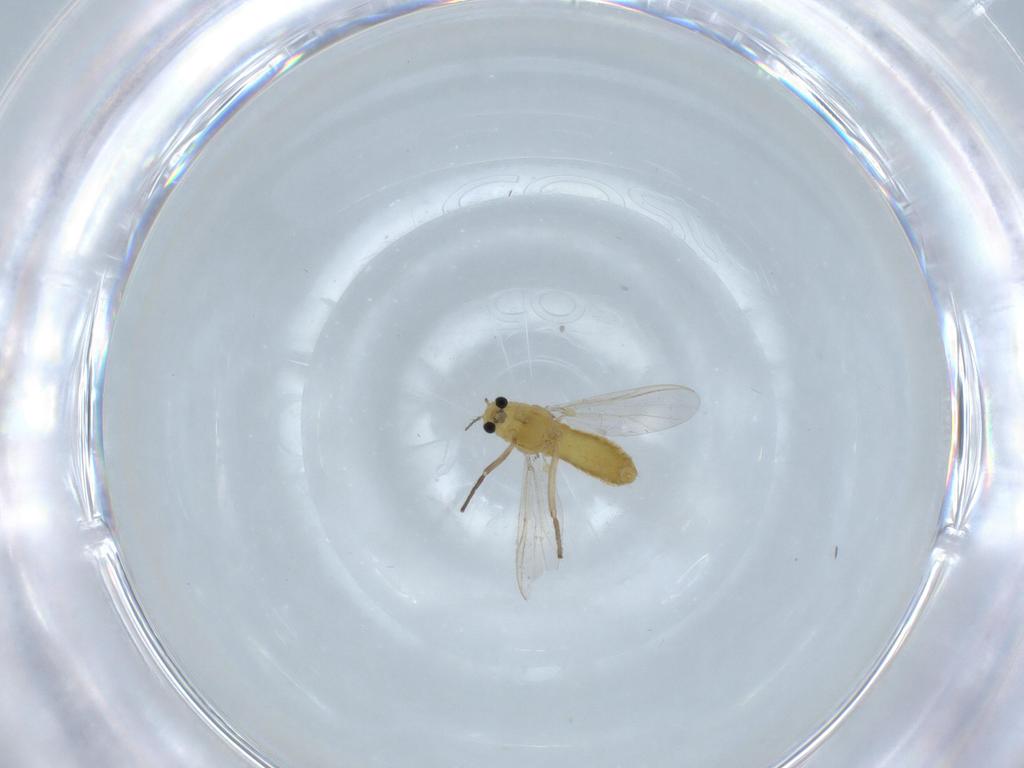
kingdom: Animalia
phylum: Arthropoda
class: Insecta
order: Diptera
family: Chironomidae
